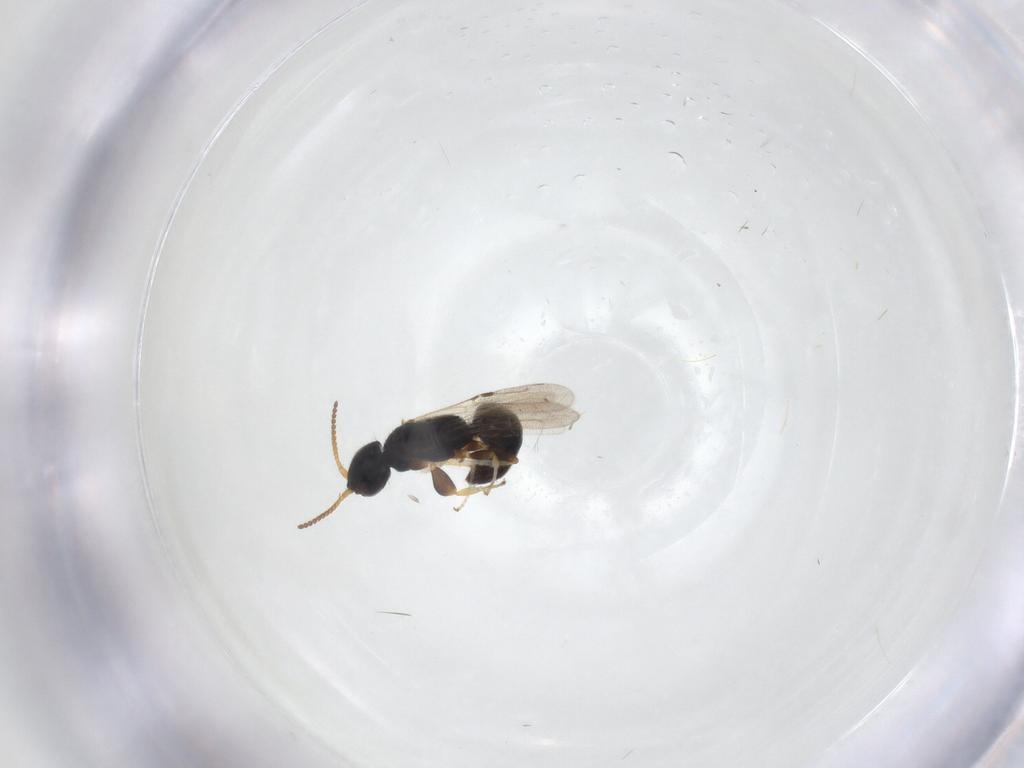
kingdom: Animalia
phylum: Arthropoda
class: Insecta
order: Hymenoptera
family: Bethylidae
